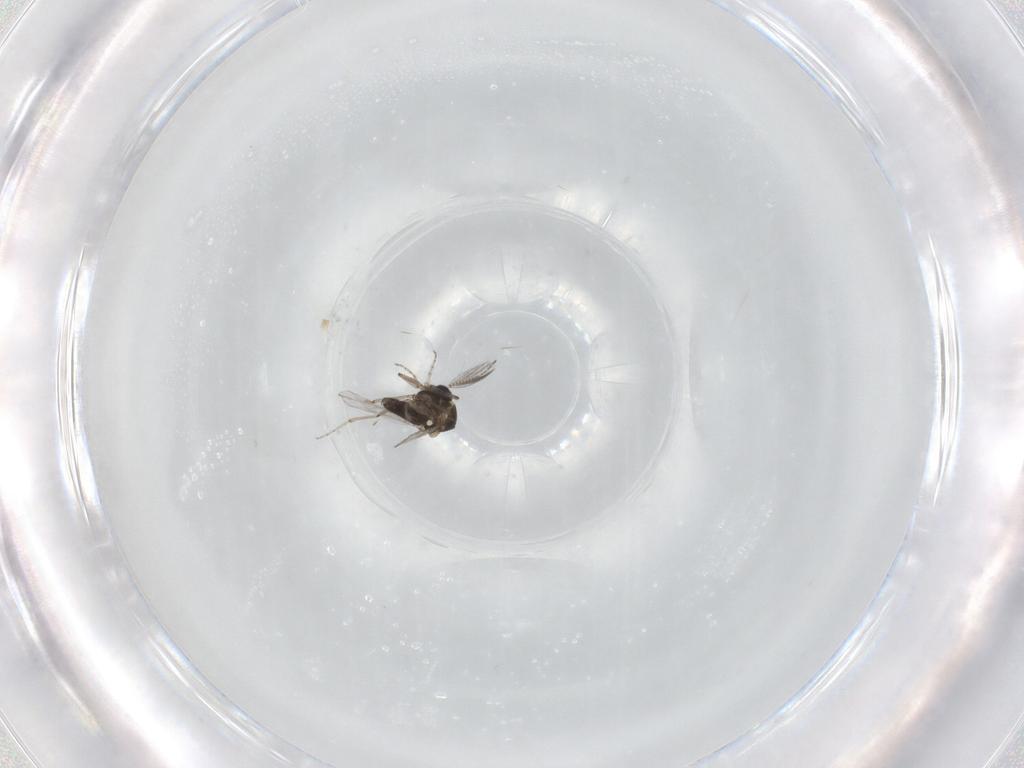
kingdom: Animalia
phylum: Arthropoda
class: Insecta
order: Diptera
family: Ceratopogonidae
